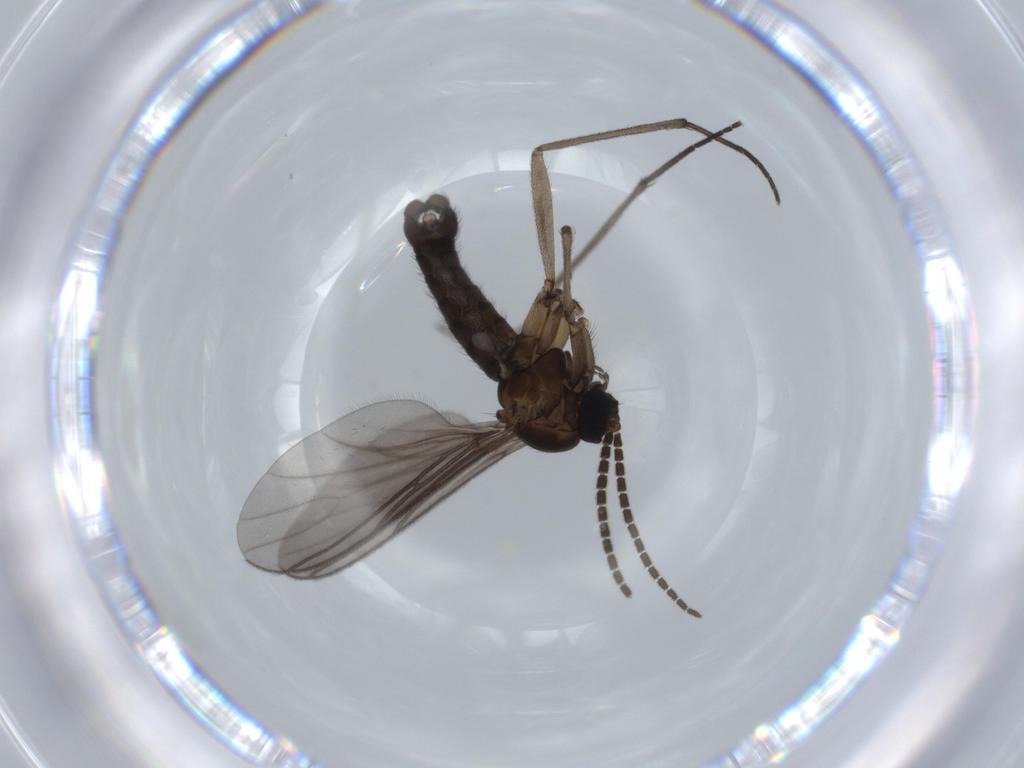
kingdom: Animalia
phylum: Arthropoda
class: Insecta
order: Diptera
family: Sciaridae
